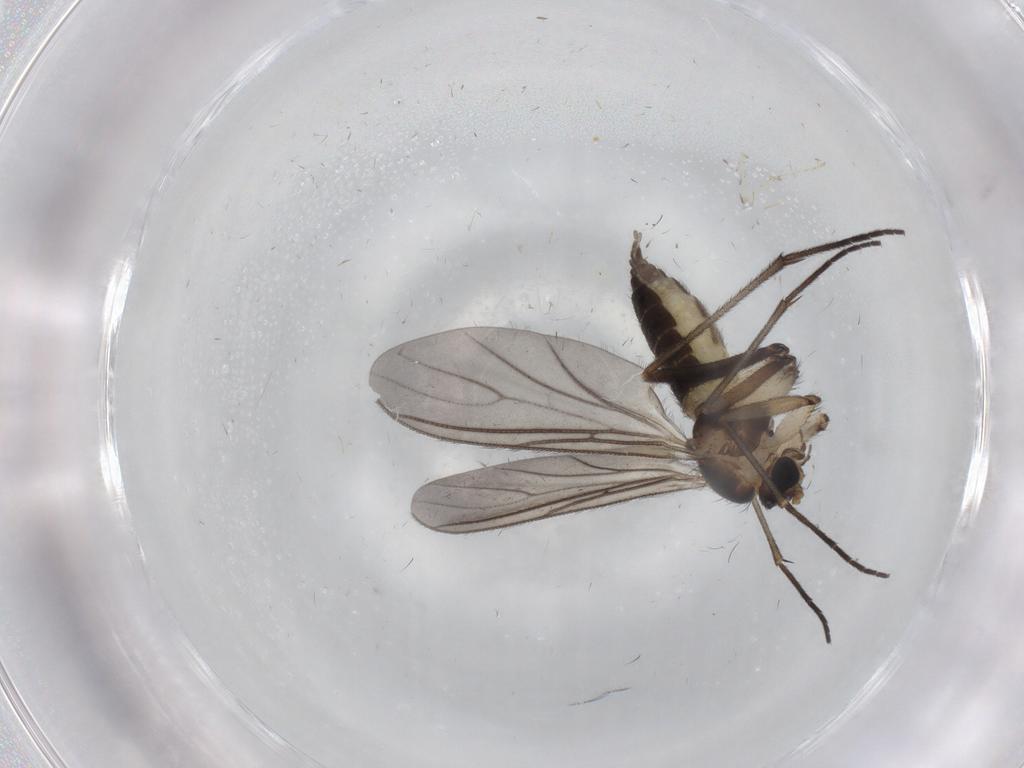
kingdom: Animalia
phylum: Arthropoda
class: Insecta
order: Diptera
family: Sciaridae
